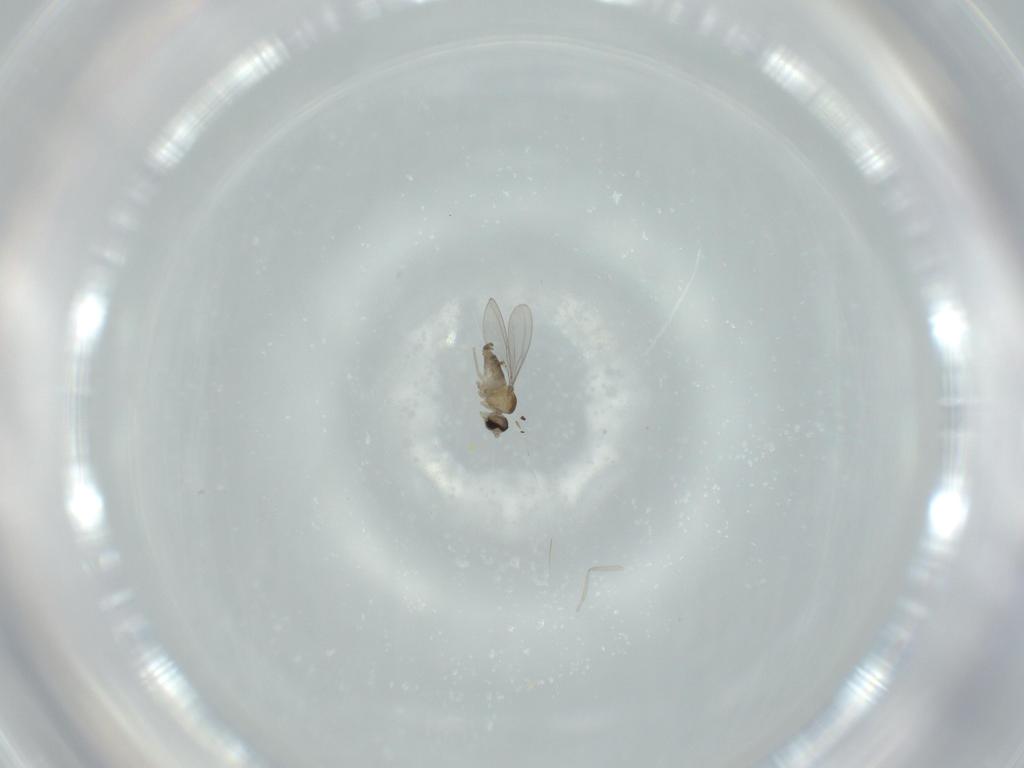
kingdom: Animalia
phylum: Arthropoda
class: Insecta
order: Diptera
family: Cecidomyiidae
